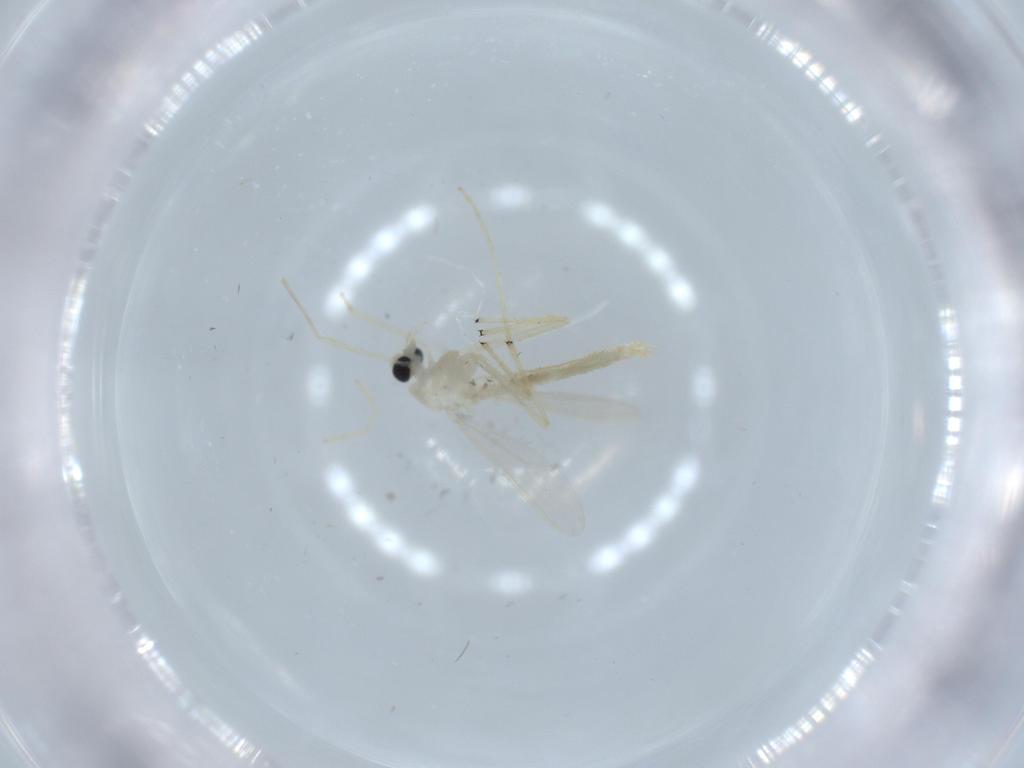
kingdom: Animalia
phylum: Arthropoda
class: Insecta
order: Diptera
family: Chironomidae
